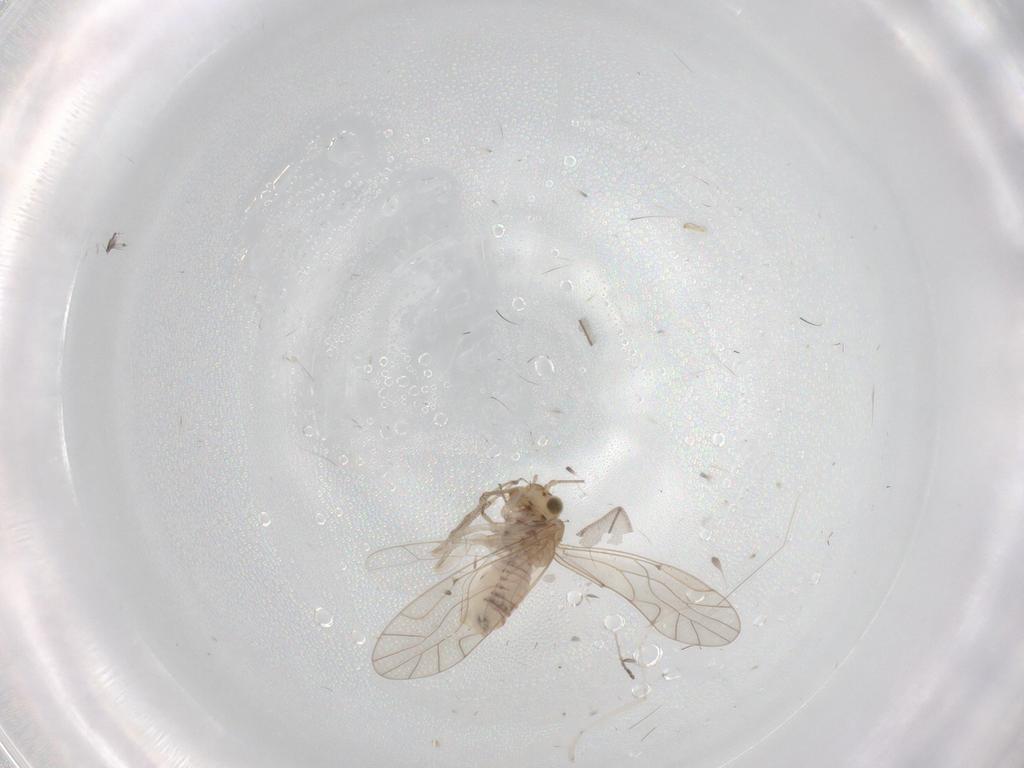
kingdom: Animalia
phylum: Arthropoda
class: Insecta
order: Psocodea
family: Lachesillidae
